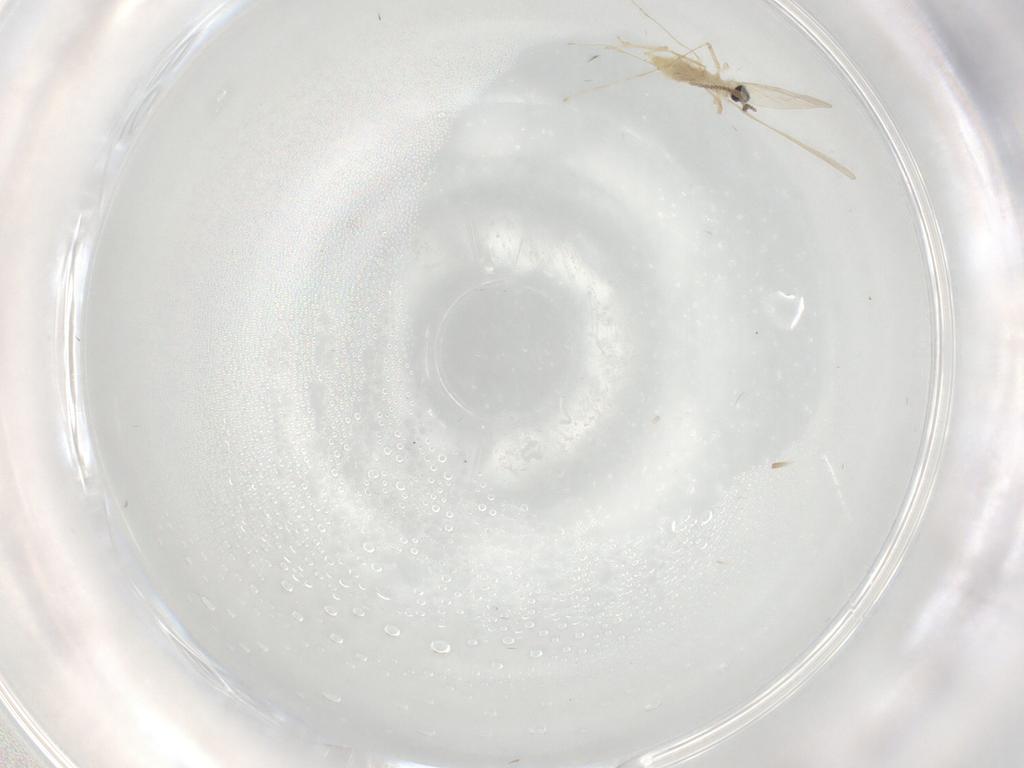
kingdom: Animalia
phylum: Arthropoda
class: Insecta
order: Diptera
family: Cecidomyiidae
